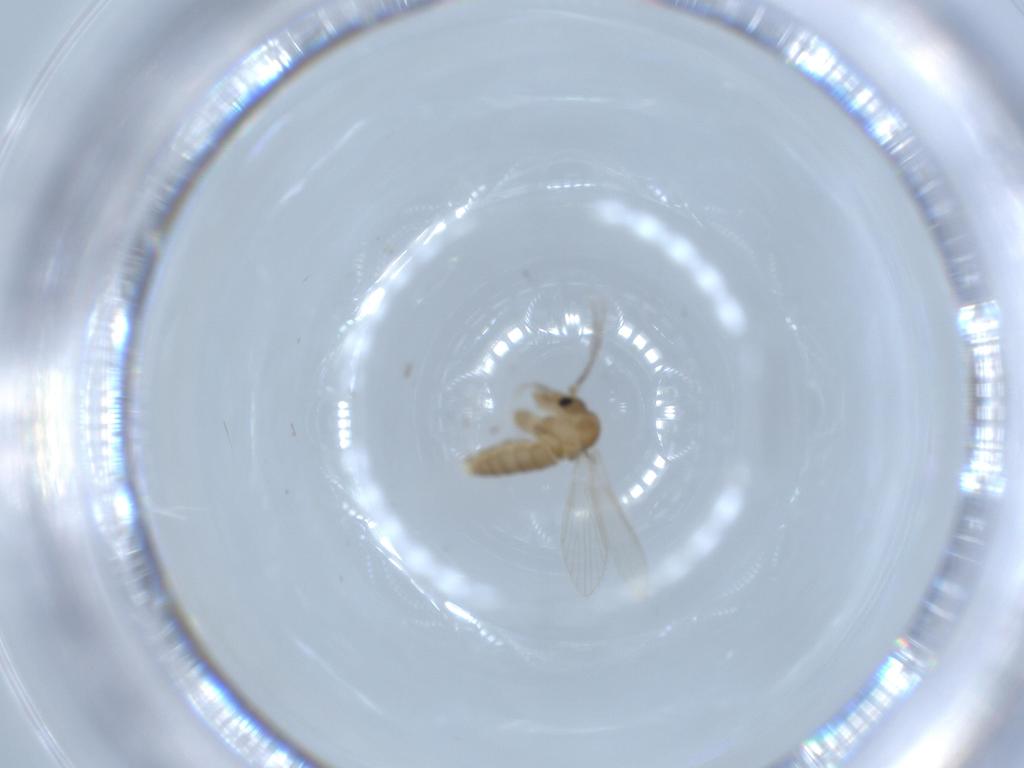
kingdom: Animalia
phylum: Arthropoda
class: Insecta
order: Diptera
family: Psychodidae
